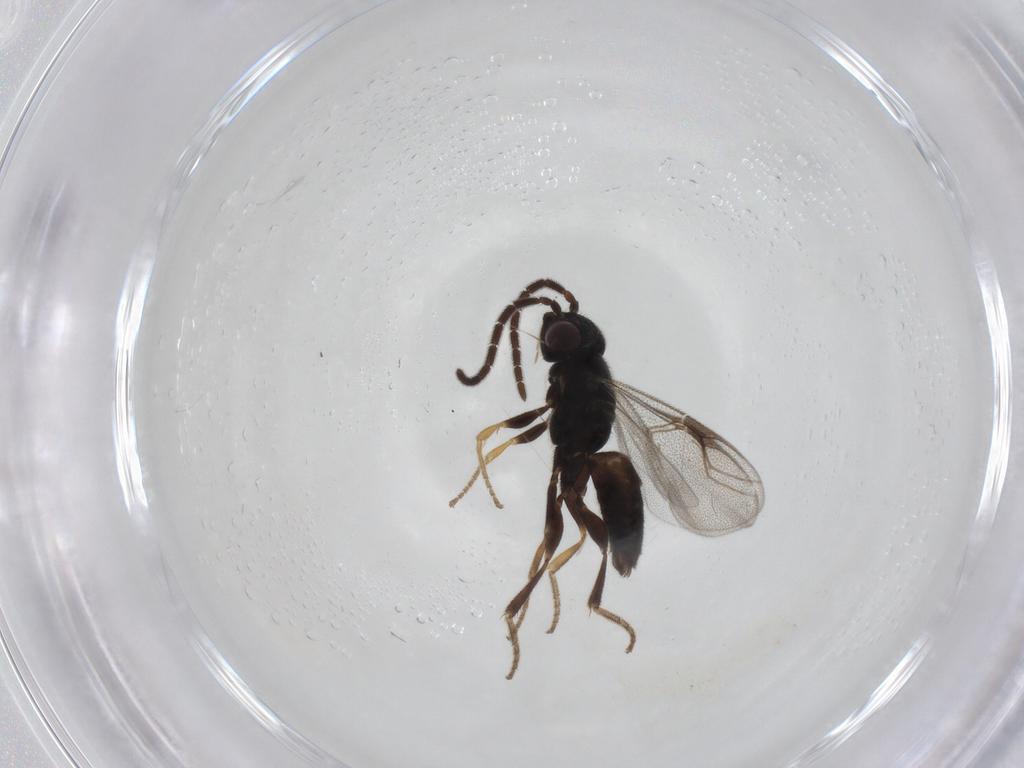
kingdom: Animalia
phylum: Arthropoda
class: Insecta
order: Hymenoptera
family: Dryinidae
